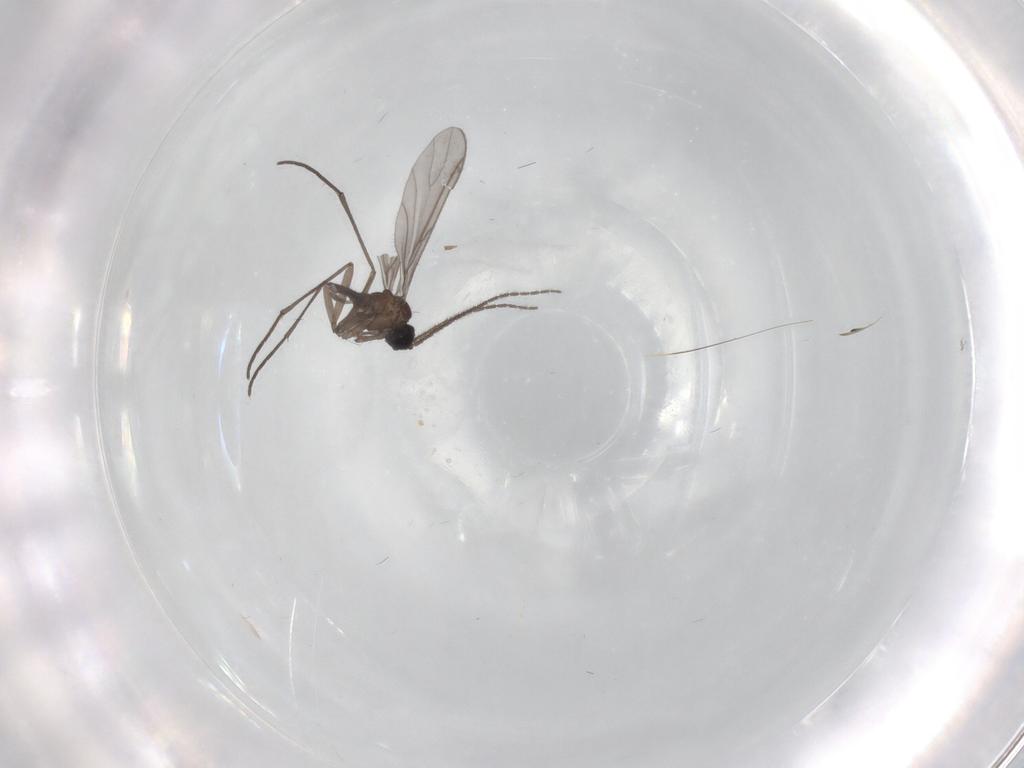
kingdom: Animalia
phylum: Arthropoda
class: Insecta
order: Diptera
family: Sciaridae
